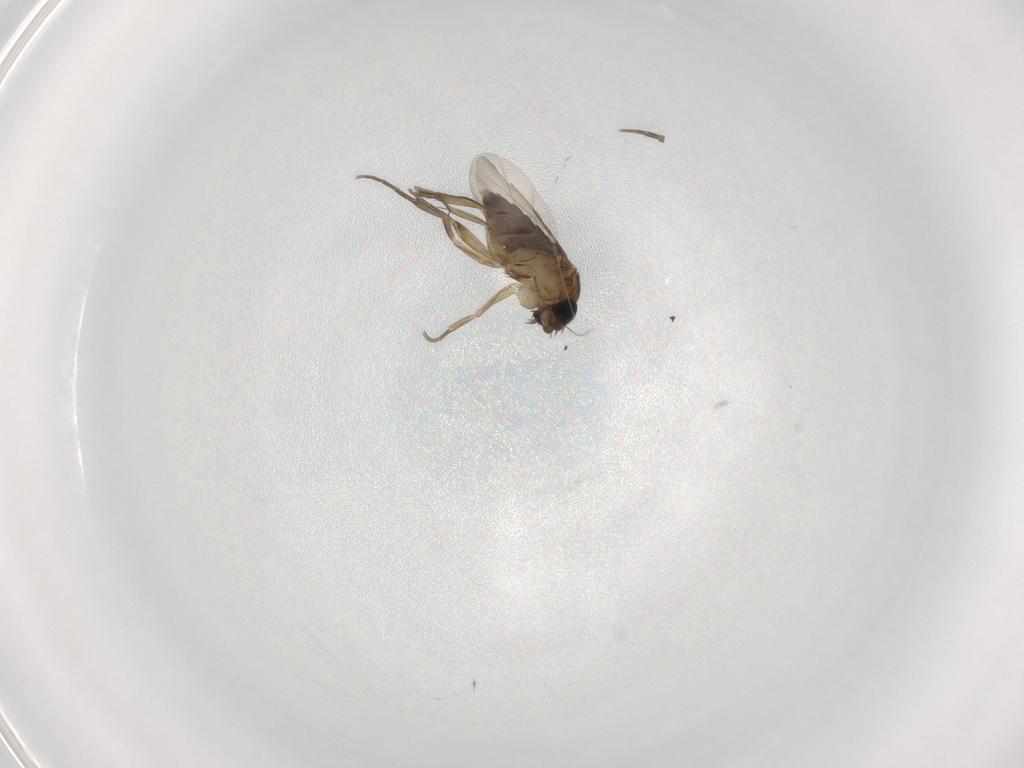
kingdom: Animalia
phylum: Arthropoda
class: Insecta
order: Diptera
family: Phoridae
